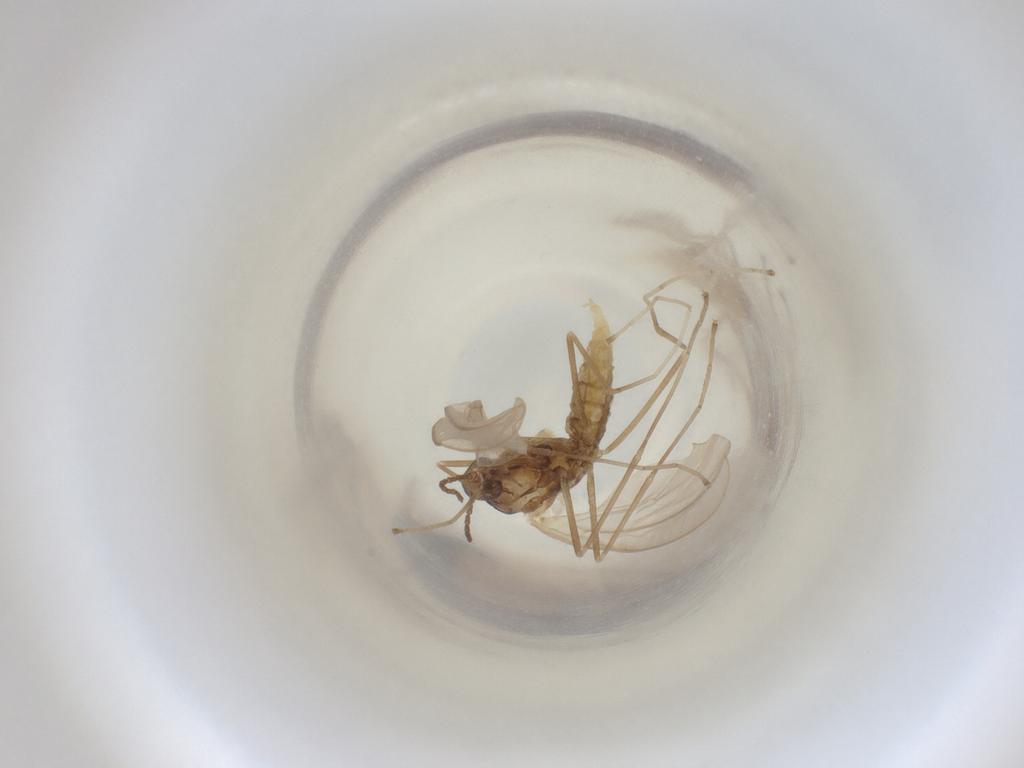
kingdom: Animalia
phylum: Arthropoda
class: Insecta
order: Diptera
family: Cecidomyiidae
